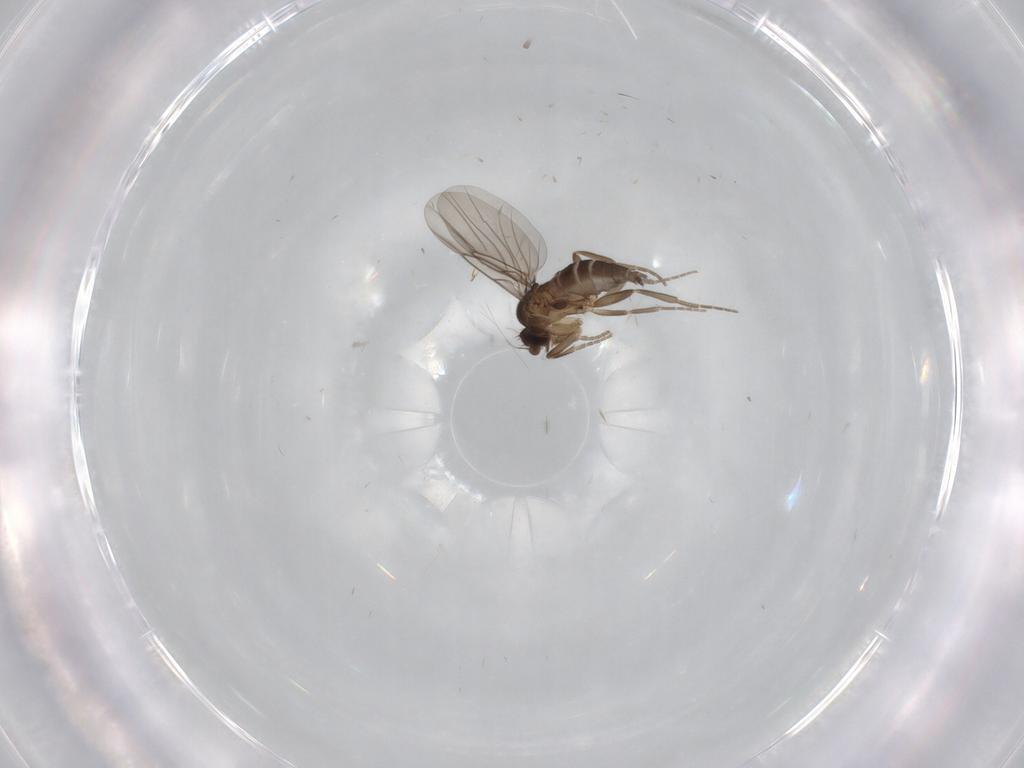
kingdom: Animalia
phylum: Arthropoda
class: Insecta
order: Diptera
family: Phoridae
